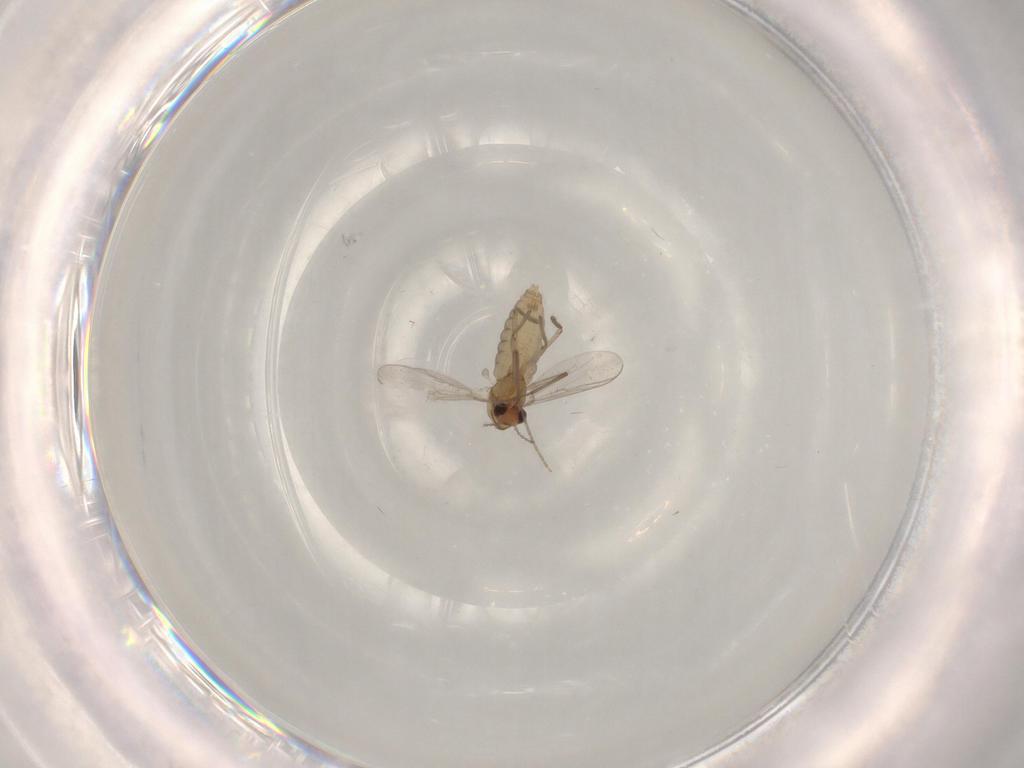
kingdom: Animalia
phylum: Arthropoda
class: Insecta
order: Diptera
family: Chironomidae
